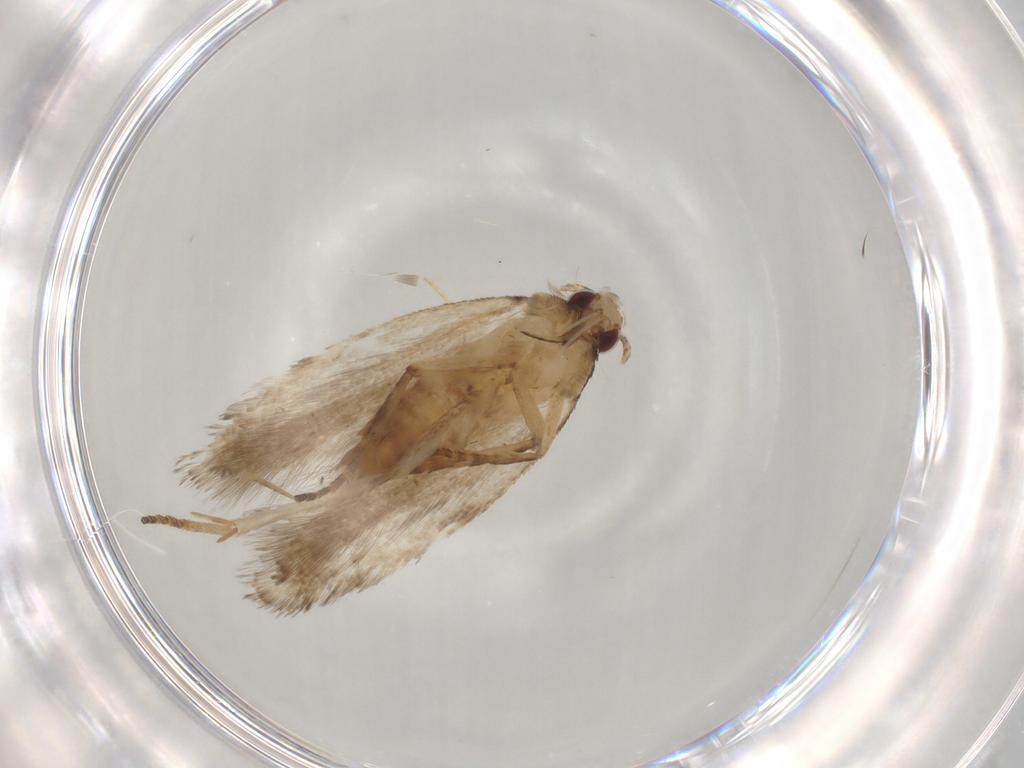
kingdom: Animalia
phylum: Arthropoda
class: Insecta
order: Lepidoptera
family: Gelechiidae
